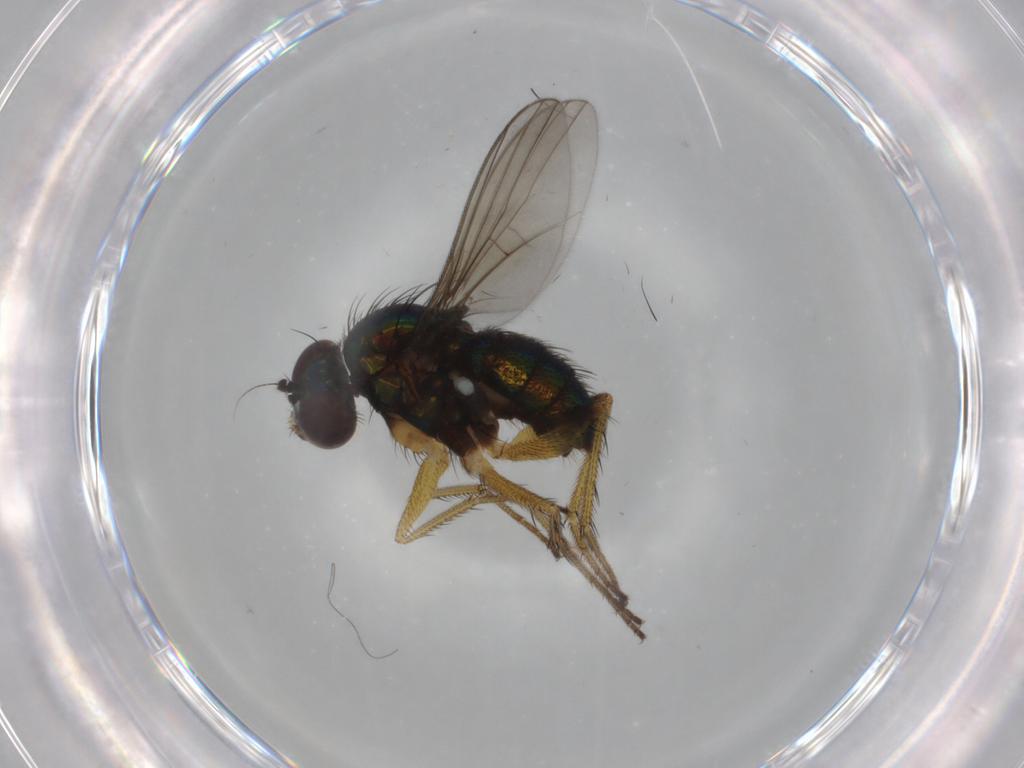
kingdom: Animalia
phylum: Arthropoda
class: Insecta
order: Diptera
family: Dolichopodidae
